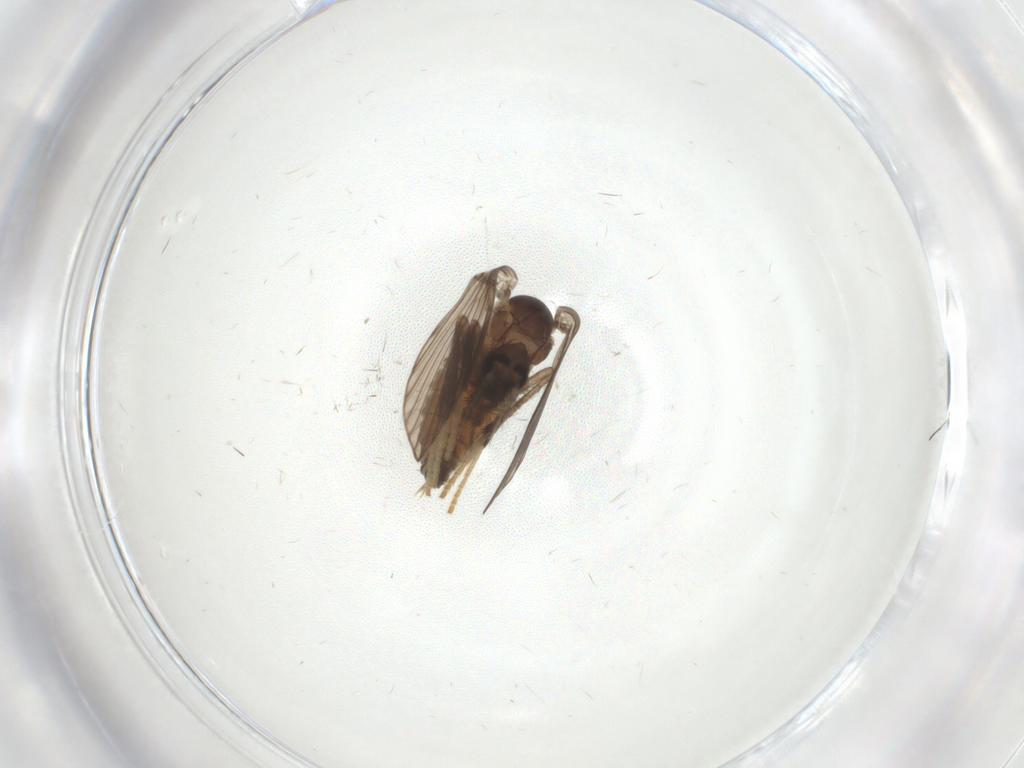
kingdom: Animalia
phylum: Arthropoda
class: Insecta
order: Diptera
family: Psychodidae
